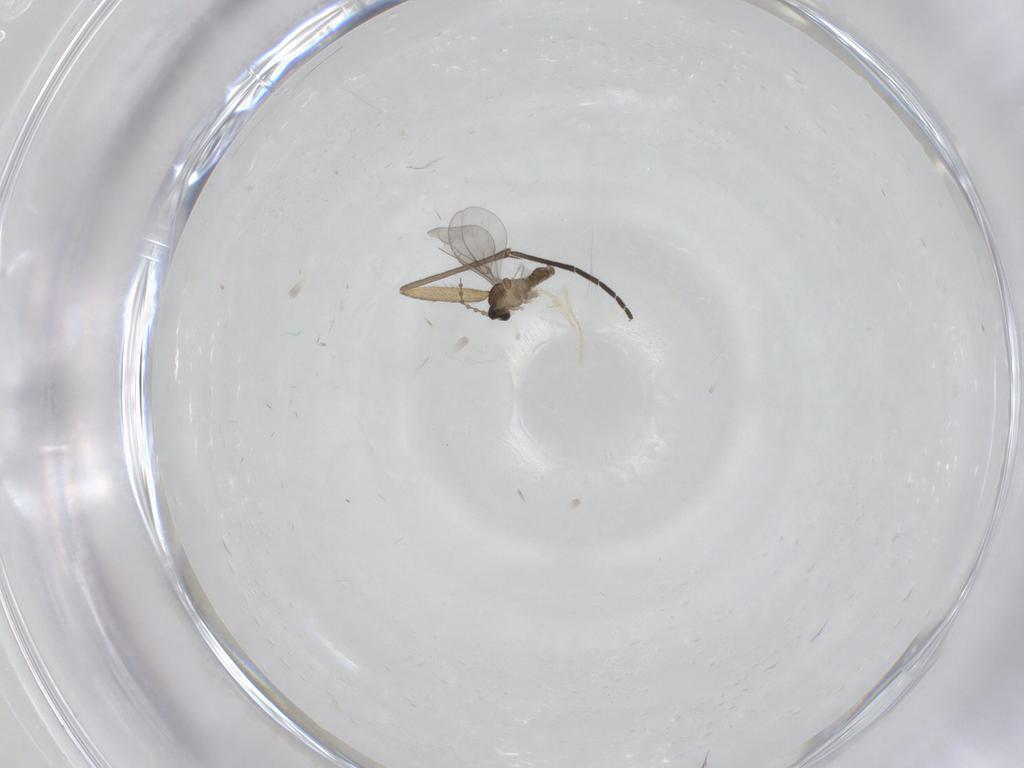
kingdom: Animalia
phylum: Arthropoda
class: Insecta
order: Diptera
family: Cecidomyiidae
